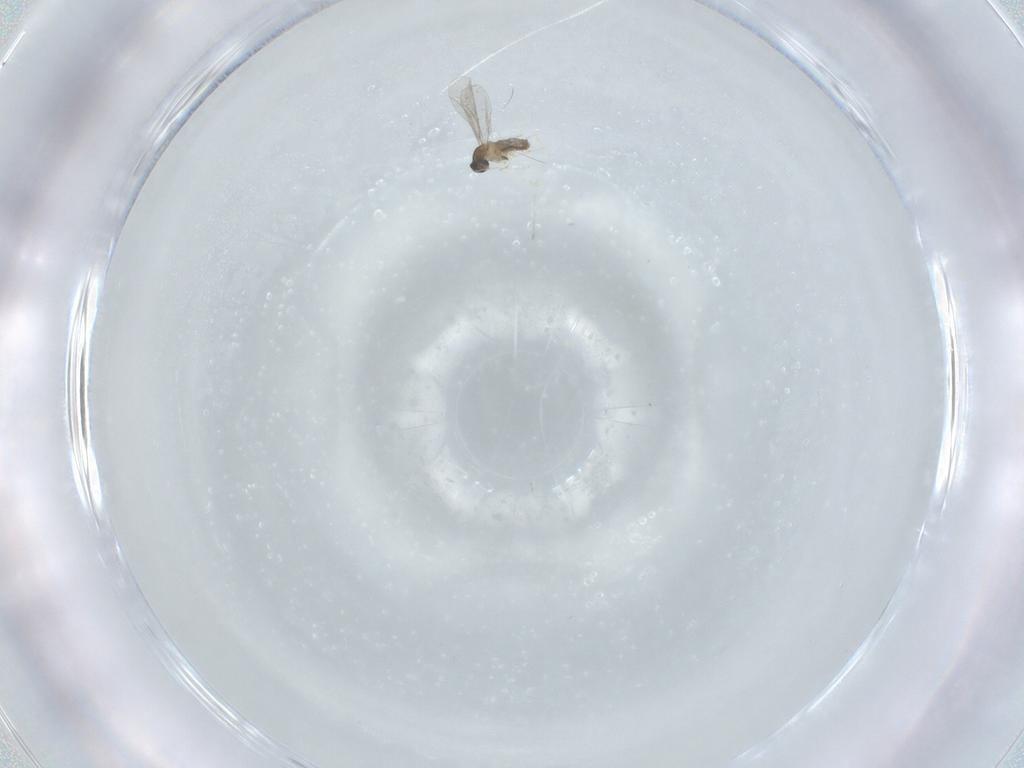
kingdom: Animalia
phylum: Arthropoda
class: Insecta
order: Diptera
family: Cecidomyiidae
